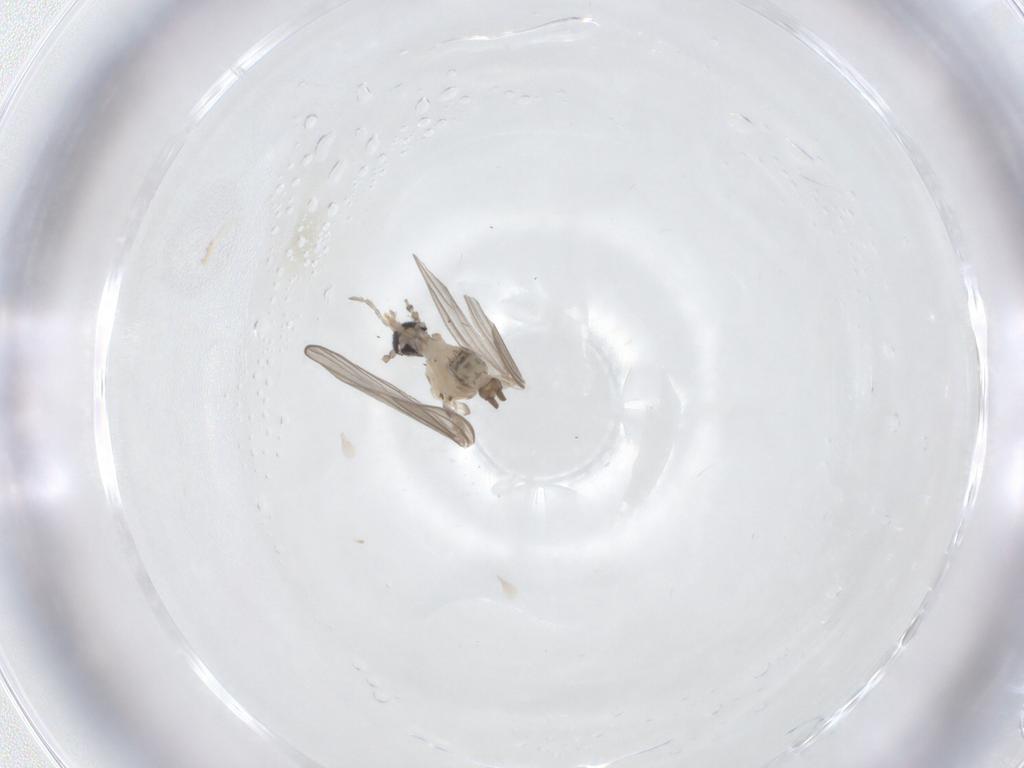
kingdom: Animalia
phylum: Arthropoda
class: Insecta
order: Diptera
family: Psychodidae
